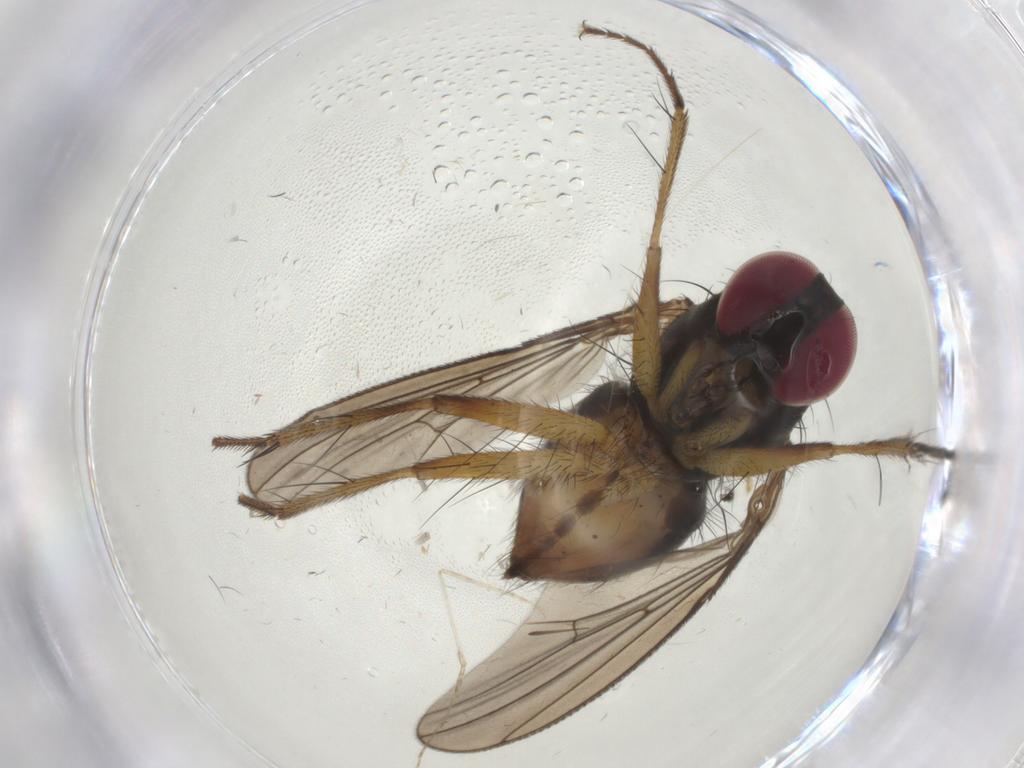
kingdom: Animalia
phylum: Arthropoda
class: Insecta
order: Diptera
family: Anthomyiidae
